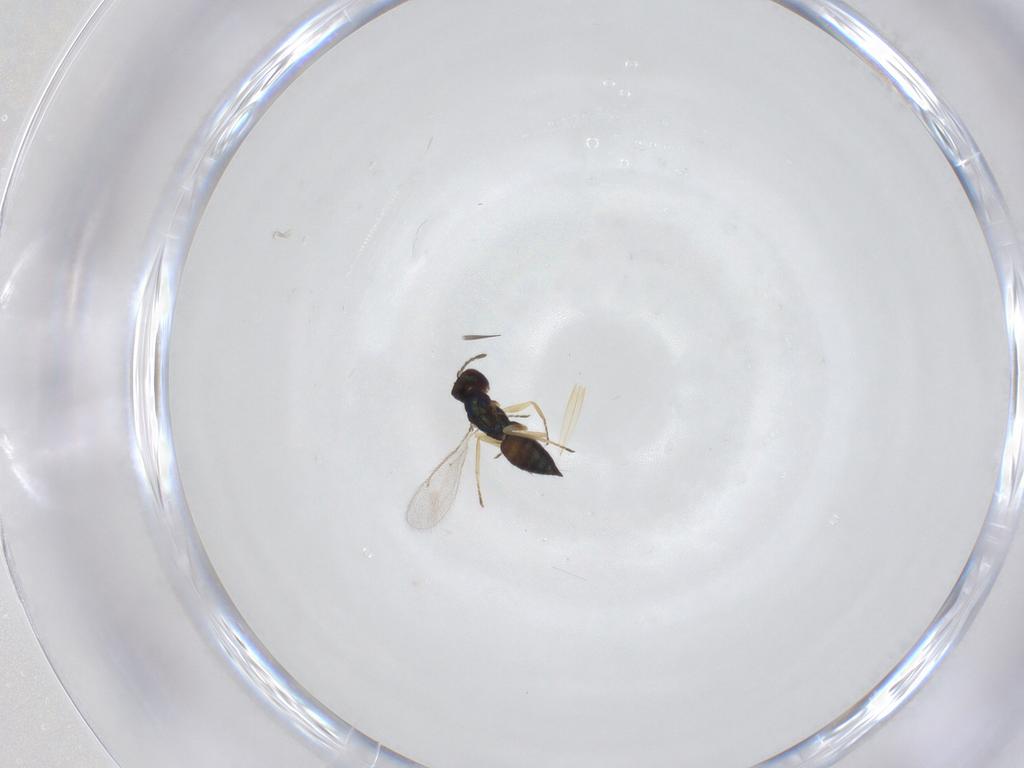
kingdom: Animalia
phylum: Arthropoda
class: Insecta
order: Hymenoptera
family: Eulophidae
